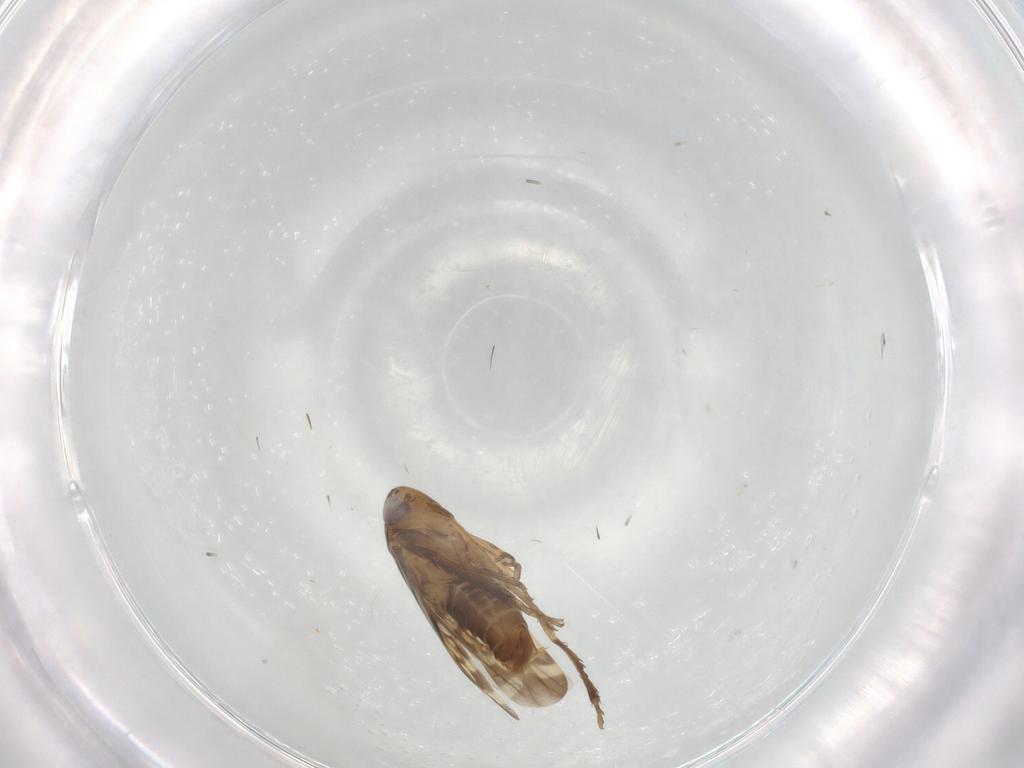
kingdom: Animalia
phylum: Arthropoda
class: Insecta
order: Hemiptera
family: Cicadellidae
